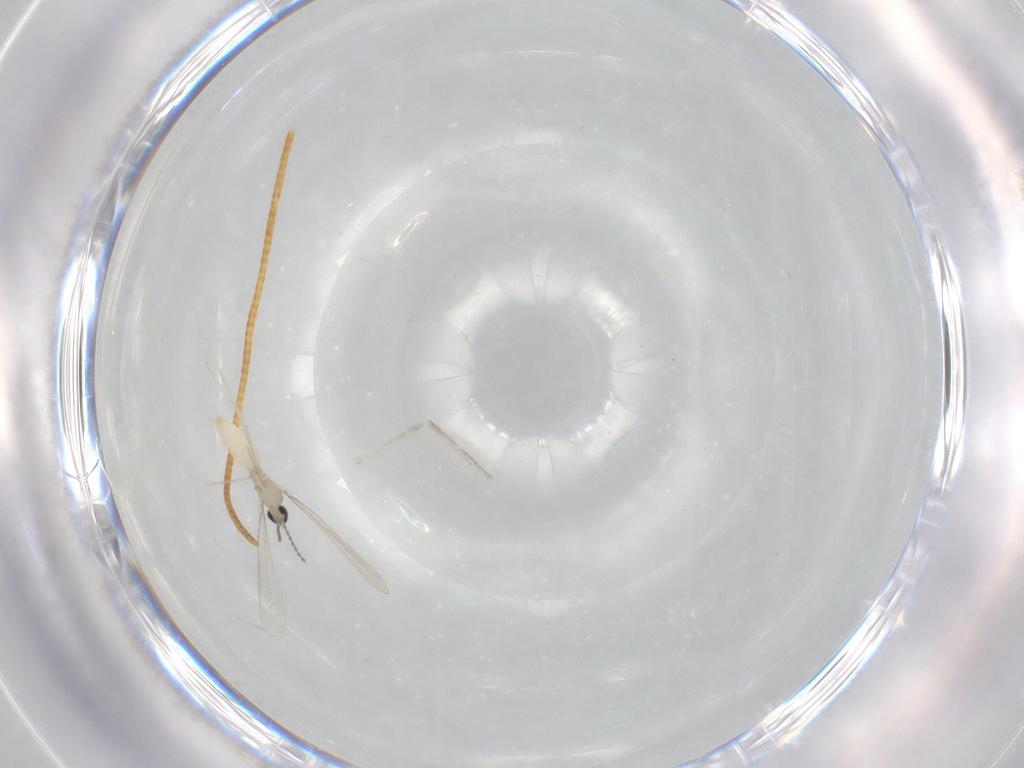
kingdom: Animalia
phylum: Arthropoda
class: Insecta
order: Diptera
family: Cecidomyiidae
